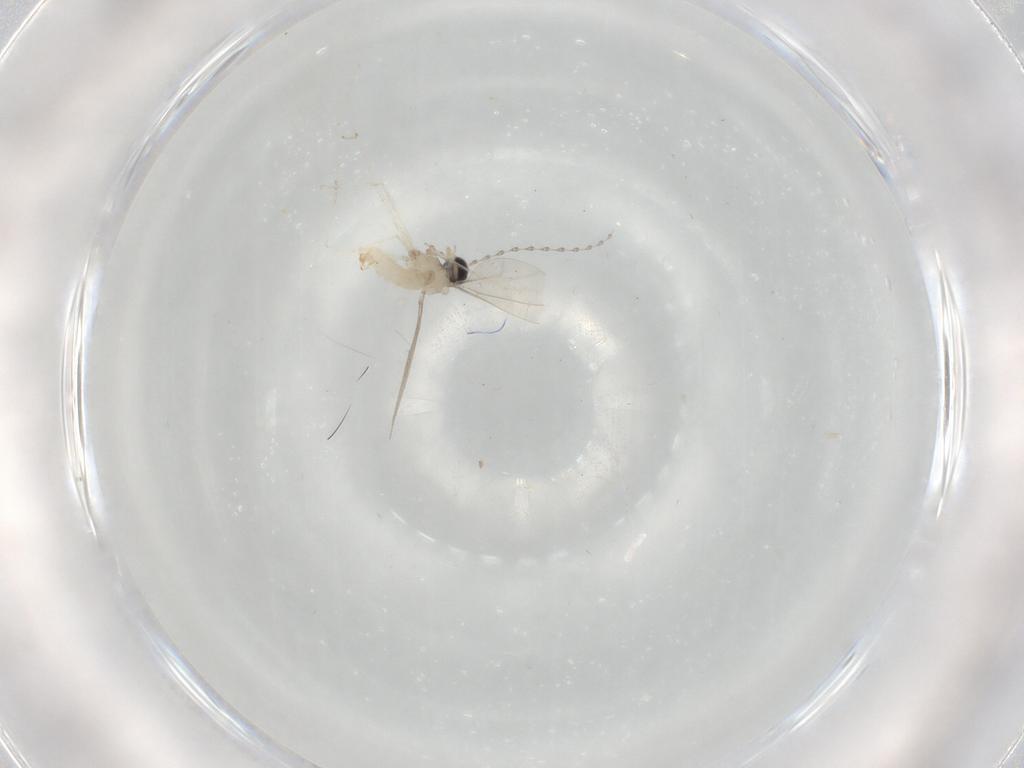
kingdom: Animalia
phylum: Arthropoda
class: Insecta
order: Diptera
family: Cecidomyiidae
